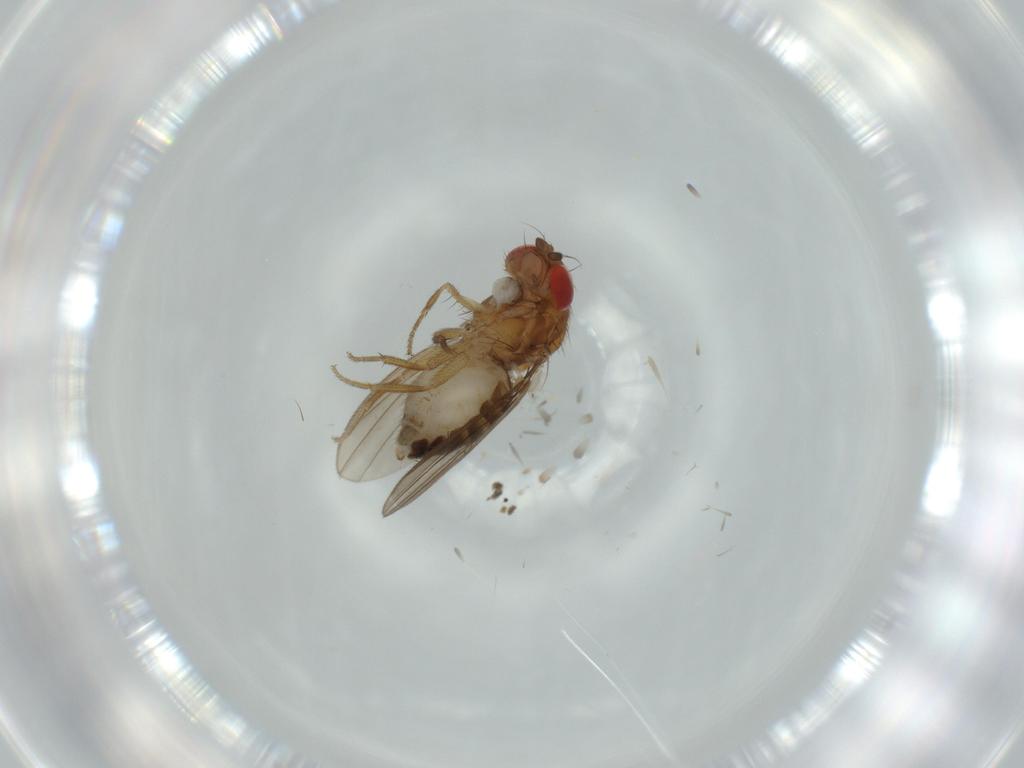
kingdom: Animalia
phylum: Arthropoda
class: Insecta
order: Diptera
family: Drosophilidae
